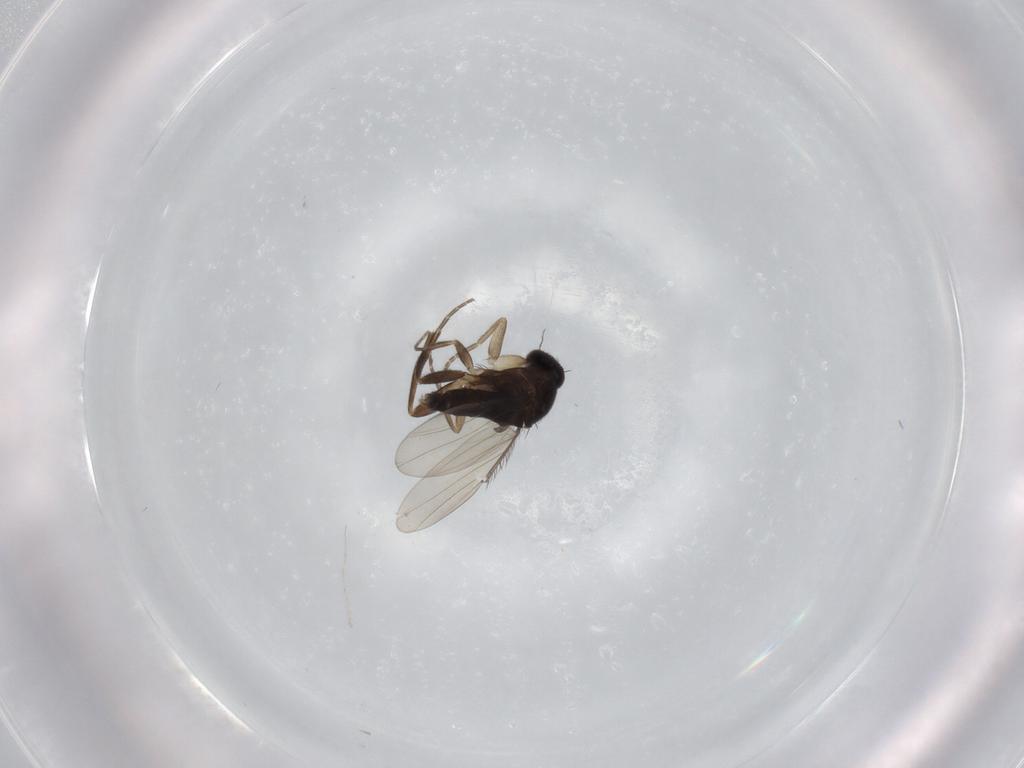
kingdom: Animalia
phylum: Arthropoda
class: Insecta
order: Diptera
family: Phoridae
